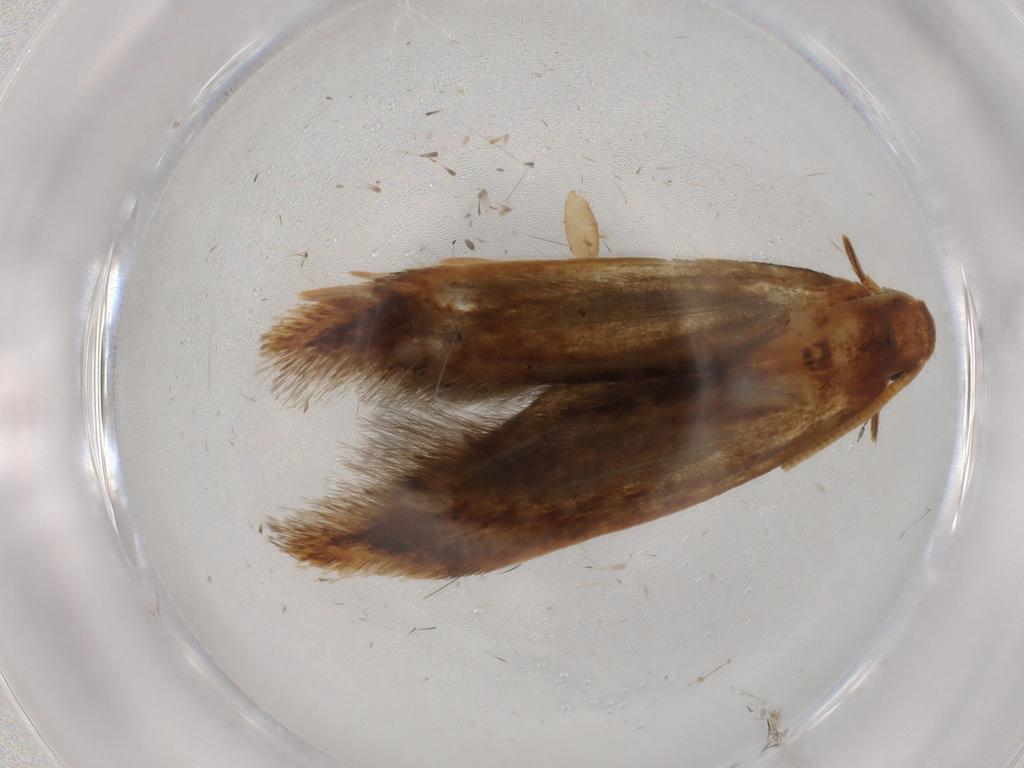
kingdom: Animalia
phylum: Arthropoda
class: Insecta
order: Lepidoptera
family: Tineidae
